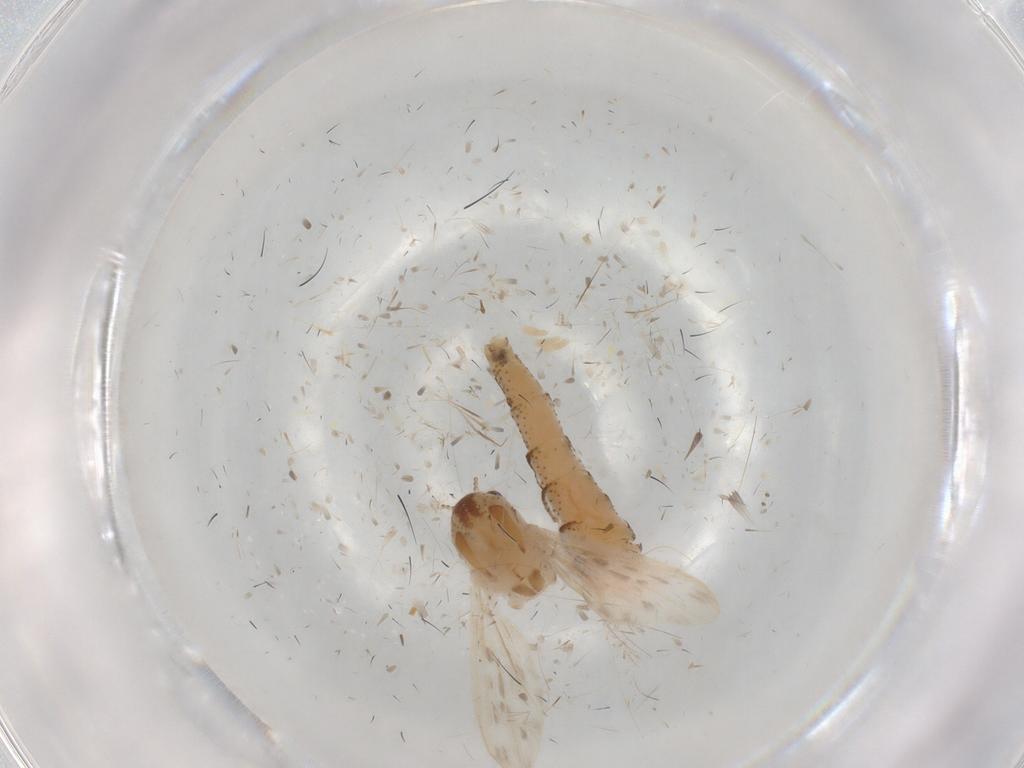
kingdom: Animalia
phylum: Arthropoda
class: Insecta
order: Diptera
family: Chaoboridae
